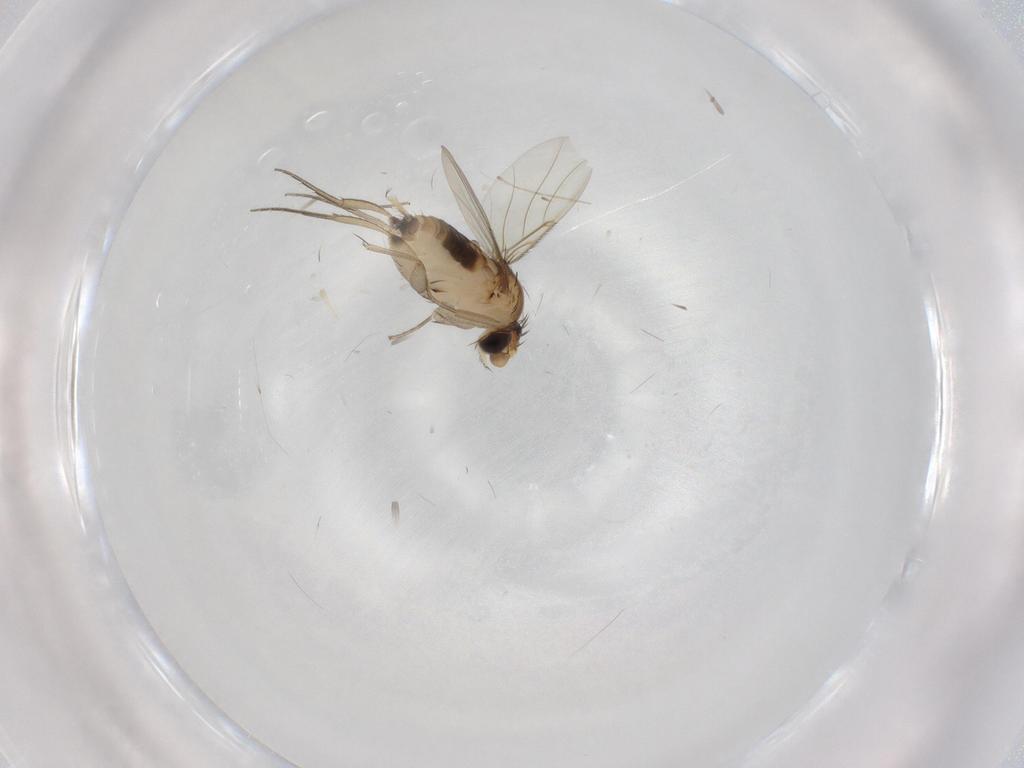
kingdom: Animalia
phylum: Arthropoda
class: Insecta
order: Diptera
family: Phoridae
